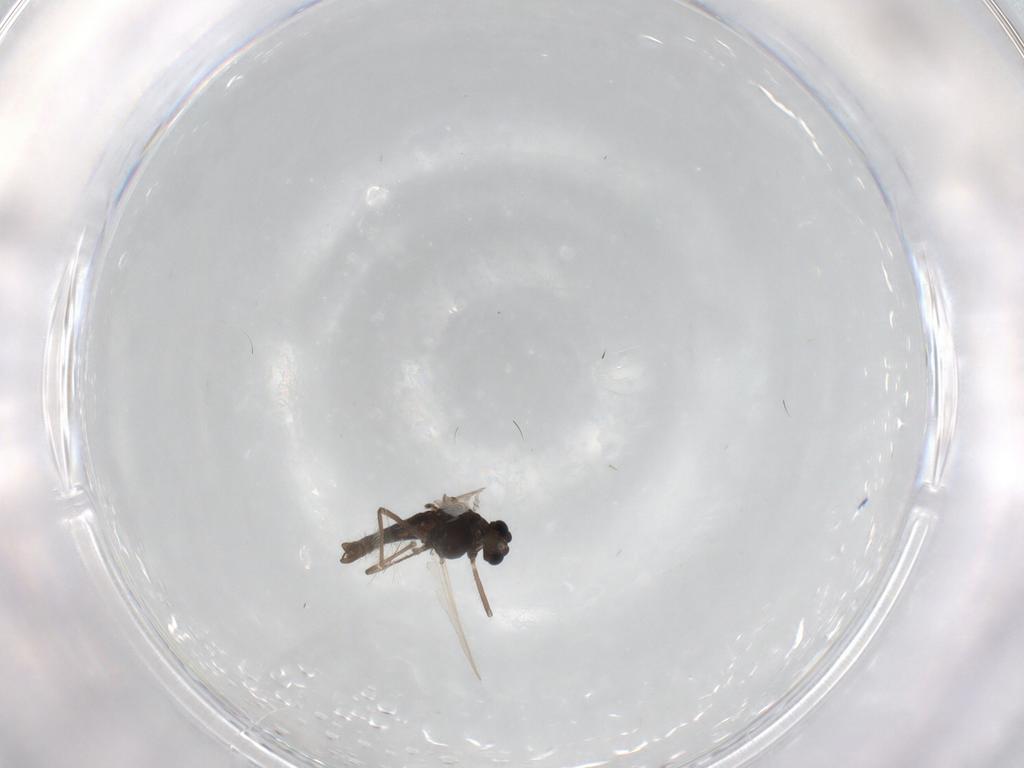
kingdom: Animalia
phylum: Arthropoda
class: Insecta
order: Diptera
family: Chironomidae
